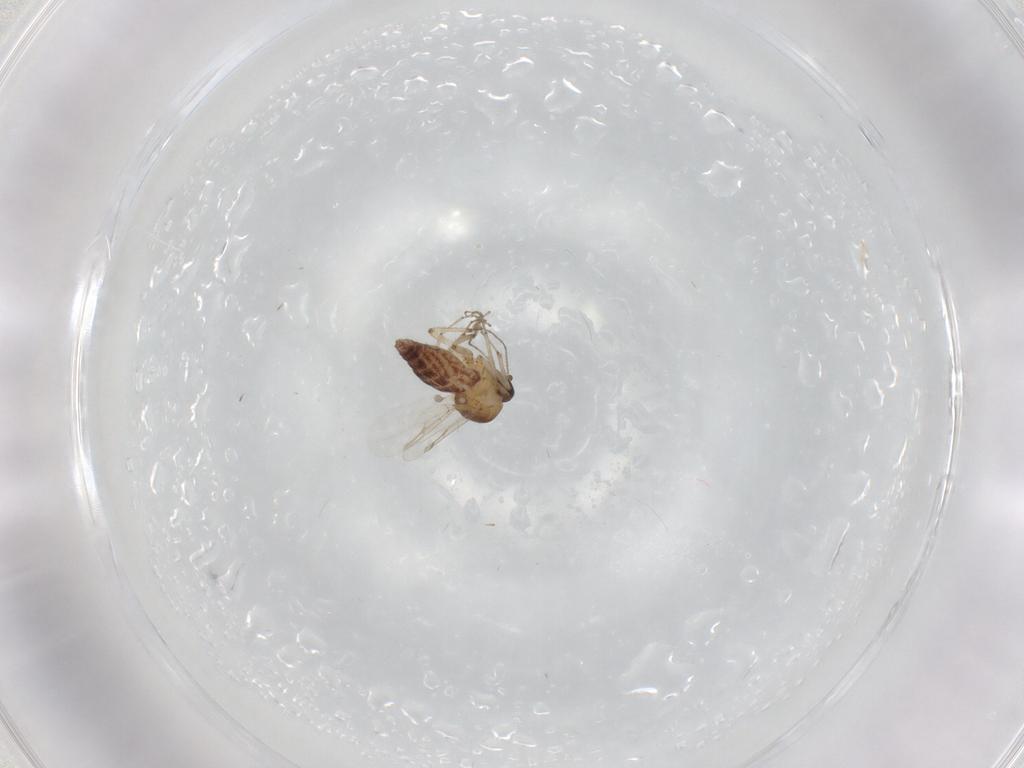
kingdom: Animalia
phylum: Arthropoda
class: Insecta
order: Diptera
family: Ceratopogonidae
